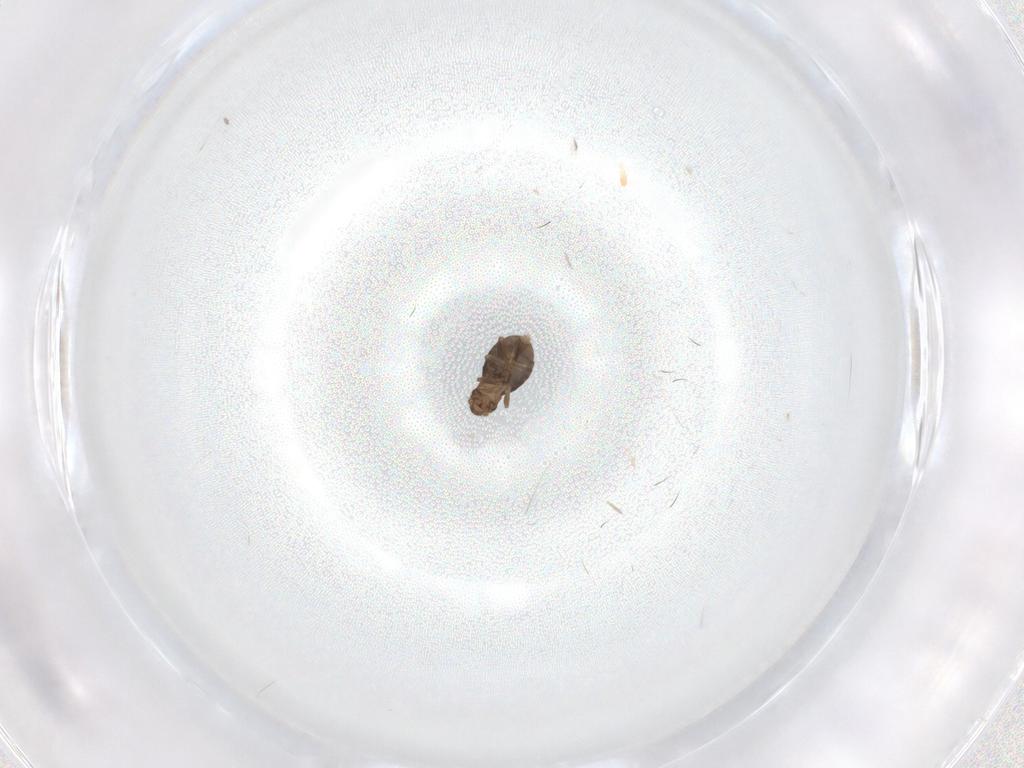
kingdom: Animalia
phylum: Arthropoda
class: Insecta
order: Diptera
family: Cecidomyiidae
